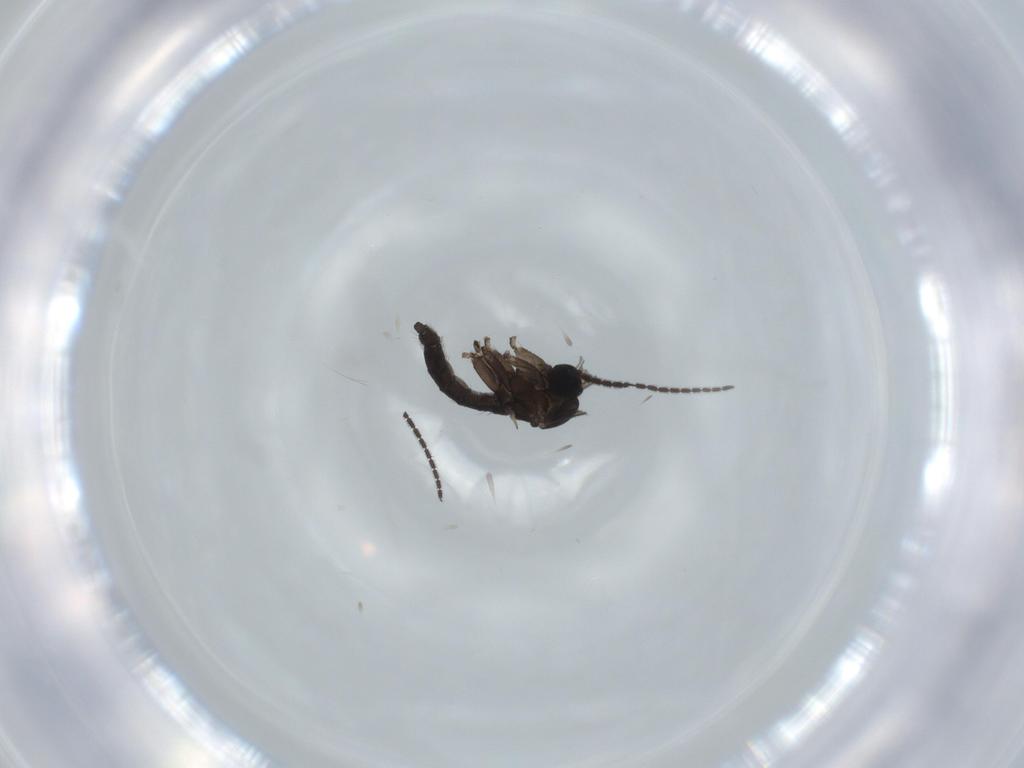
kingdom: Animalia
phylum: Arthropoda
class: Insecta
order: Diptera
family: Sciaridae
